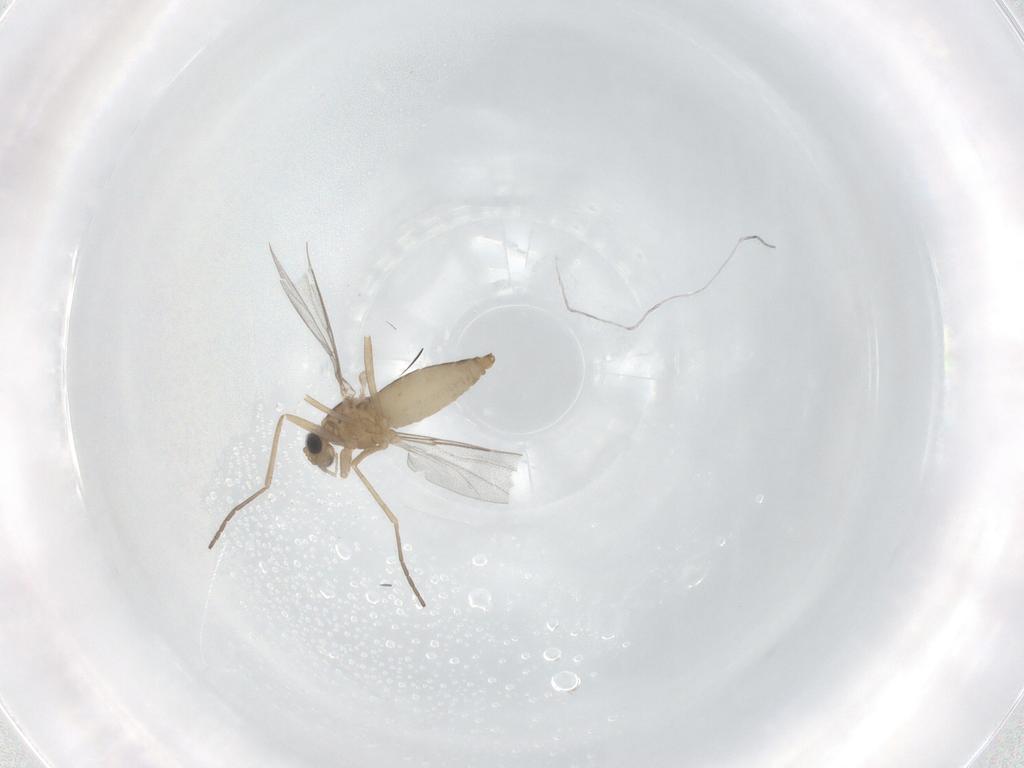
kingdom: Animalia
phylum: Arthropoda
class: Insecta
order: Diptera
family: Cecidomyiidae
